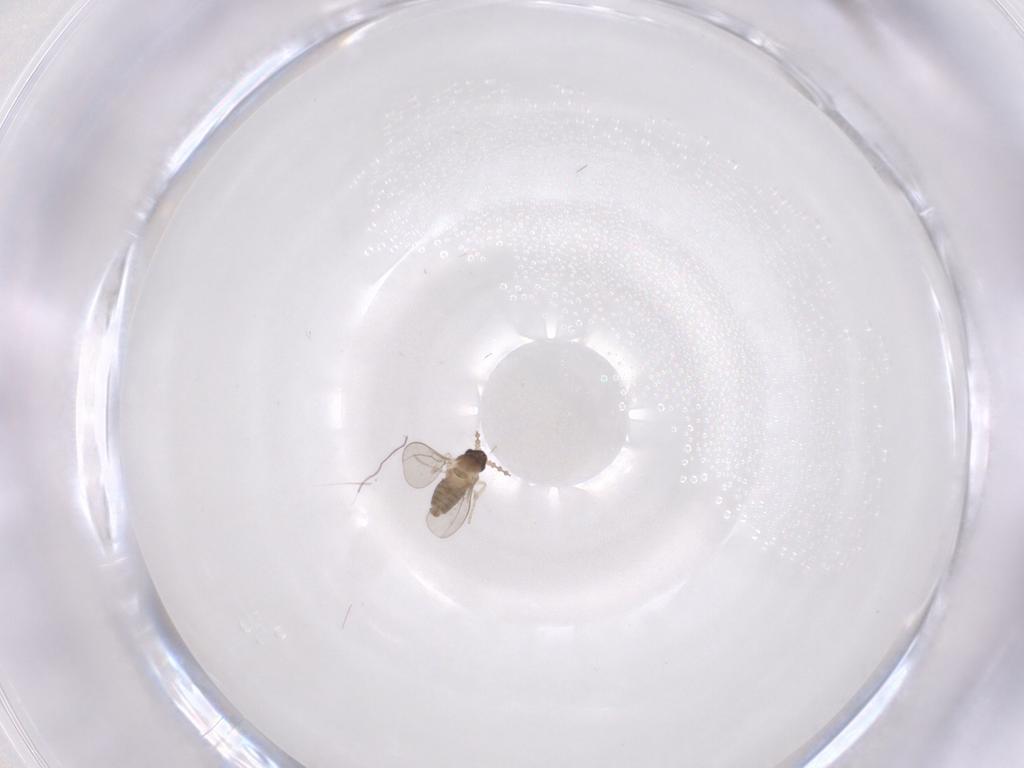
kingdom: Animalia
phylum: Arthropoda
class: Insecta
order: Diptera
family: Cecidomyiidae
